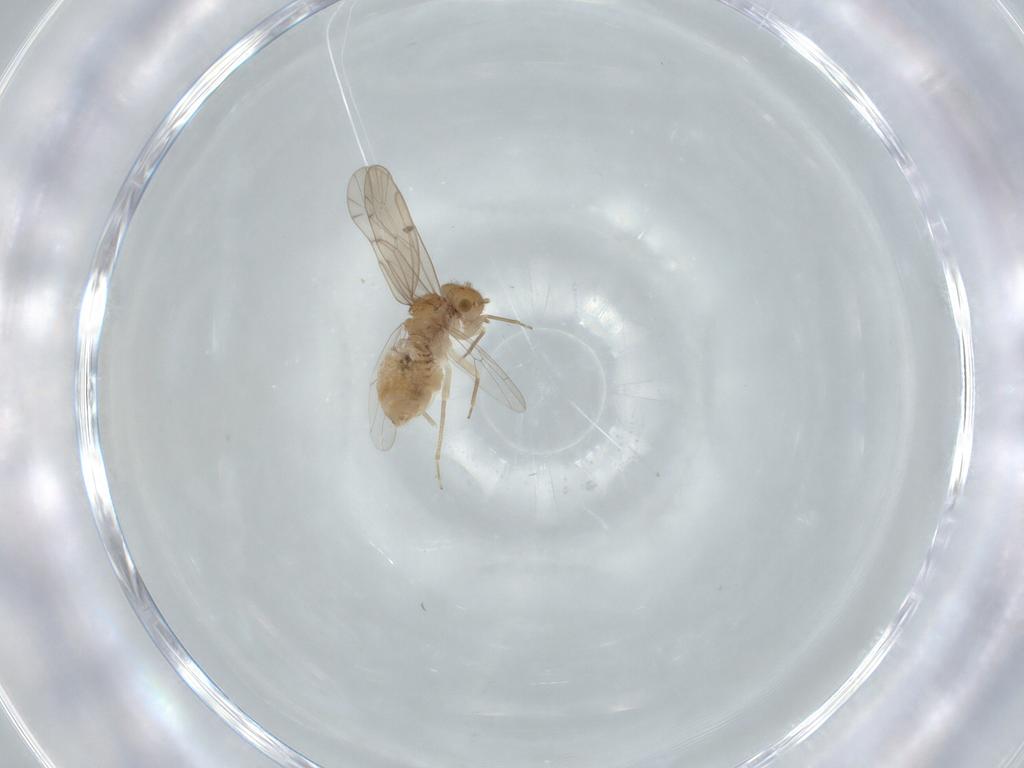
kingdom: Animalia
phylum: Arthropoda
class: Insecta
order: Psocodea
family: Ectopsocidae
